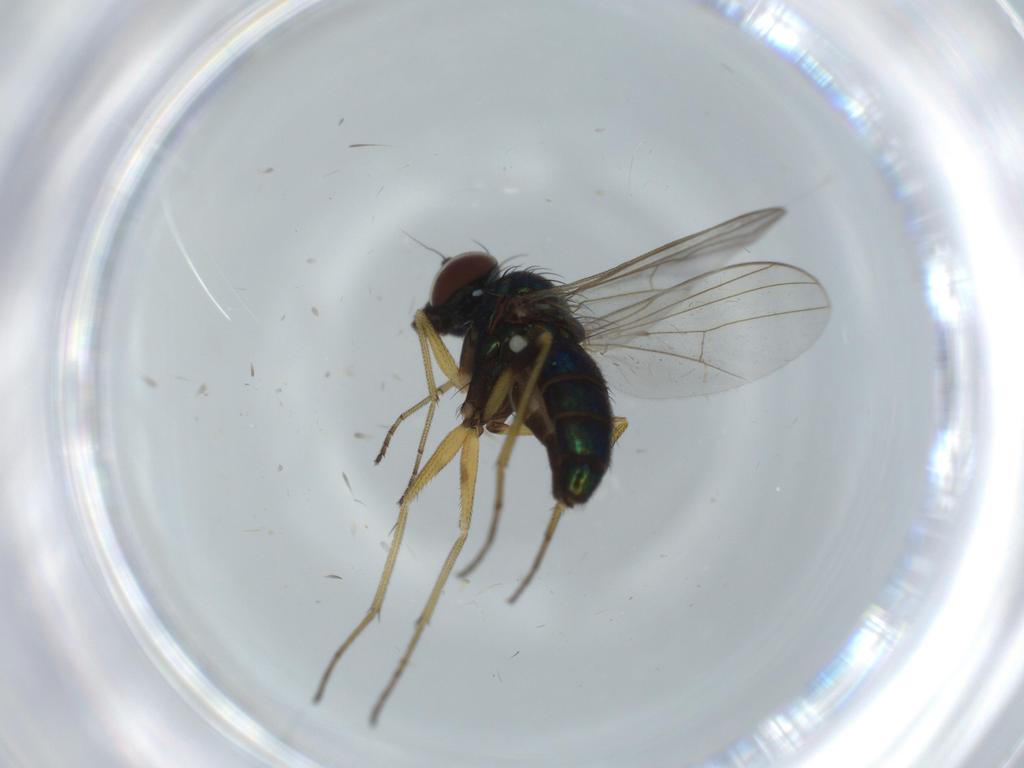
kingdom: Animalia
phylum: Arthropoda
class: Insecta
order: Diptera
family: Dolichopodidae
